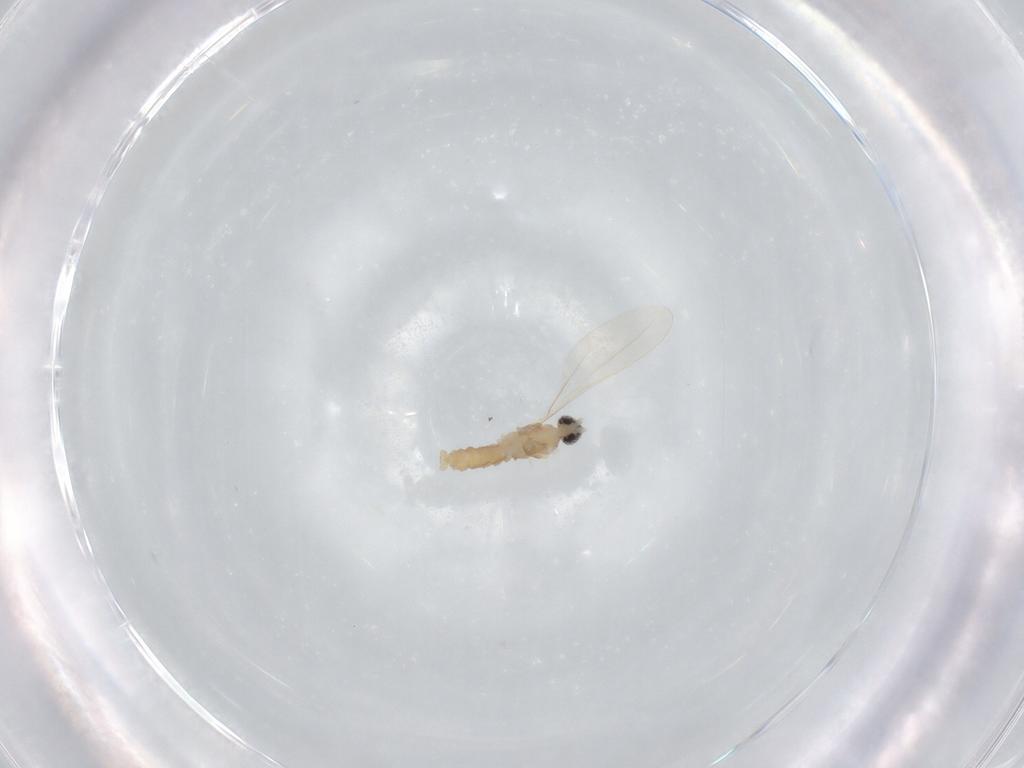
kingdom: Animalia
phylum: Arthropoda
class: Insecta
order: Diptera
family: Cecidomyiidae
